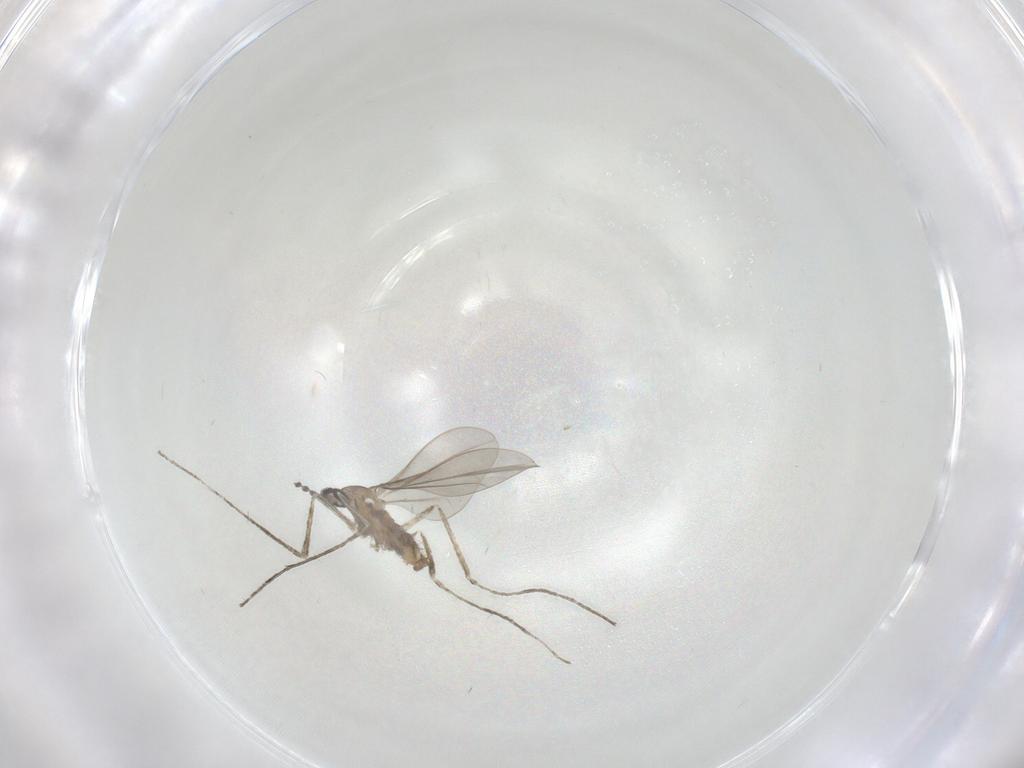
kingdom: Animalia
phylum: Arthropoda
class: Insecta
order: Diptera
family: Cecidomyiidae
